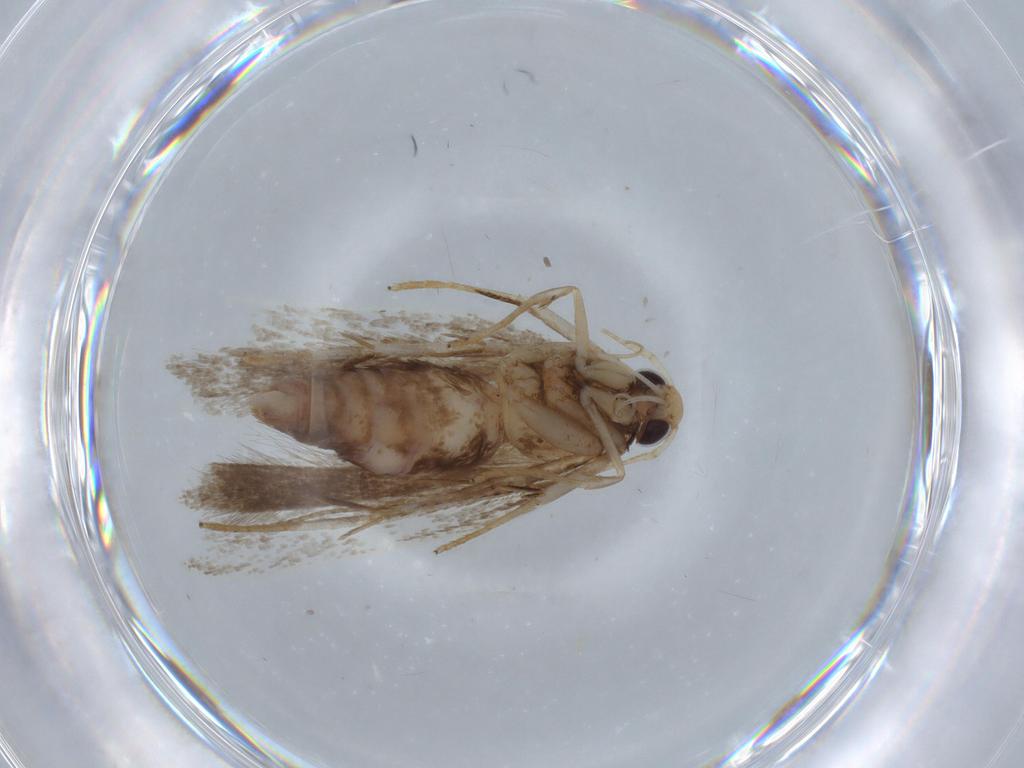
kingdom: Animalia
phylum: Arthropoda
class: Insecta
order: Lepidoptera
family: Gelechiidae
